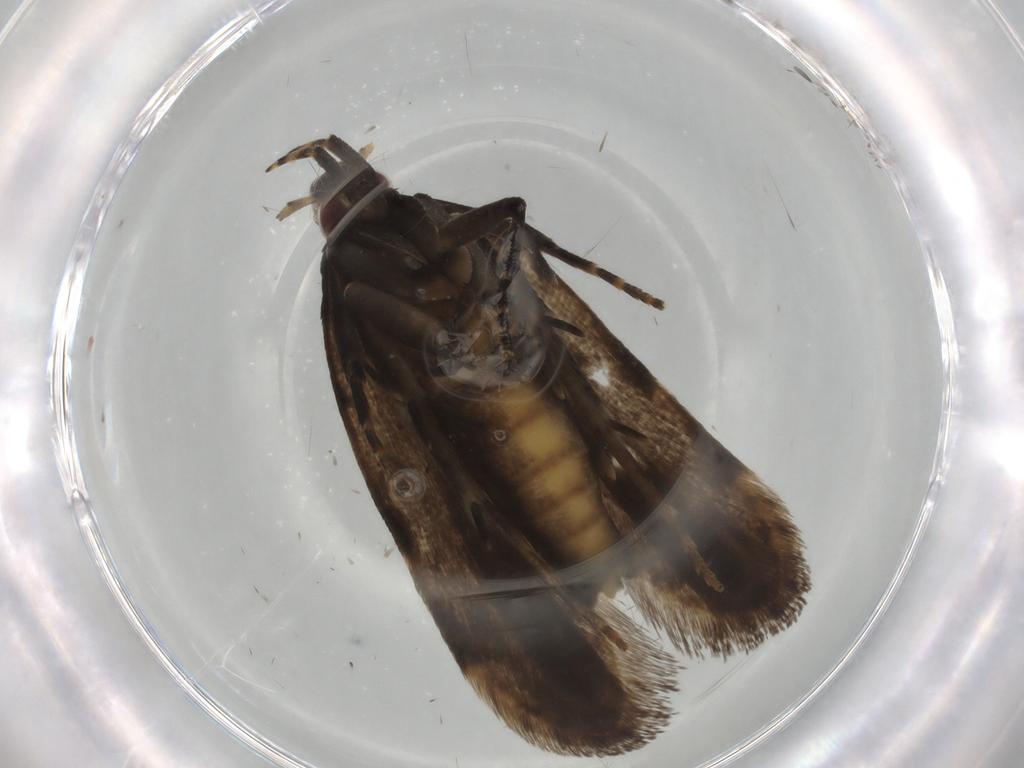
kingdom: Animalia
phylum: Arthropoda
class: Insecta
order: Lepidoptera
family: Gelechiidae
